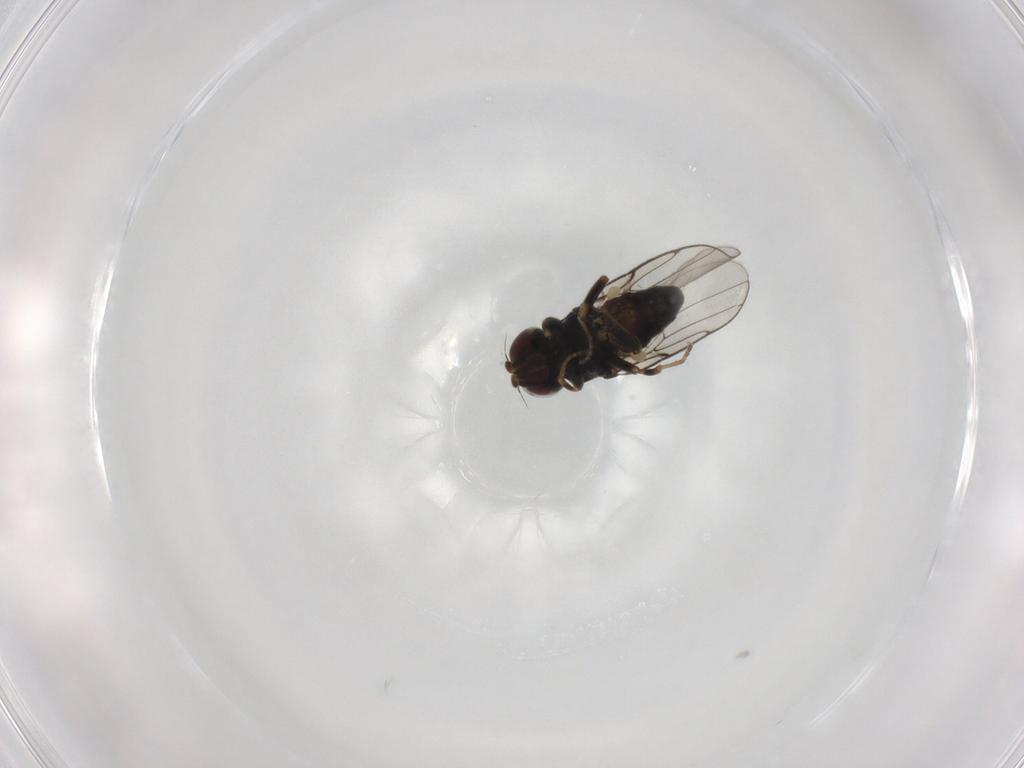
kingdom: Animalia
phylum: Arthropoda
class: Insecta
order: Diptera
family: Chloropidae
